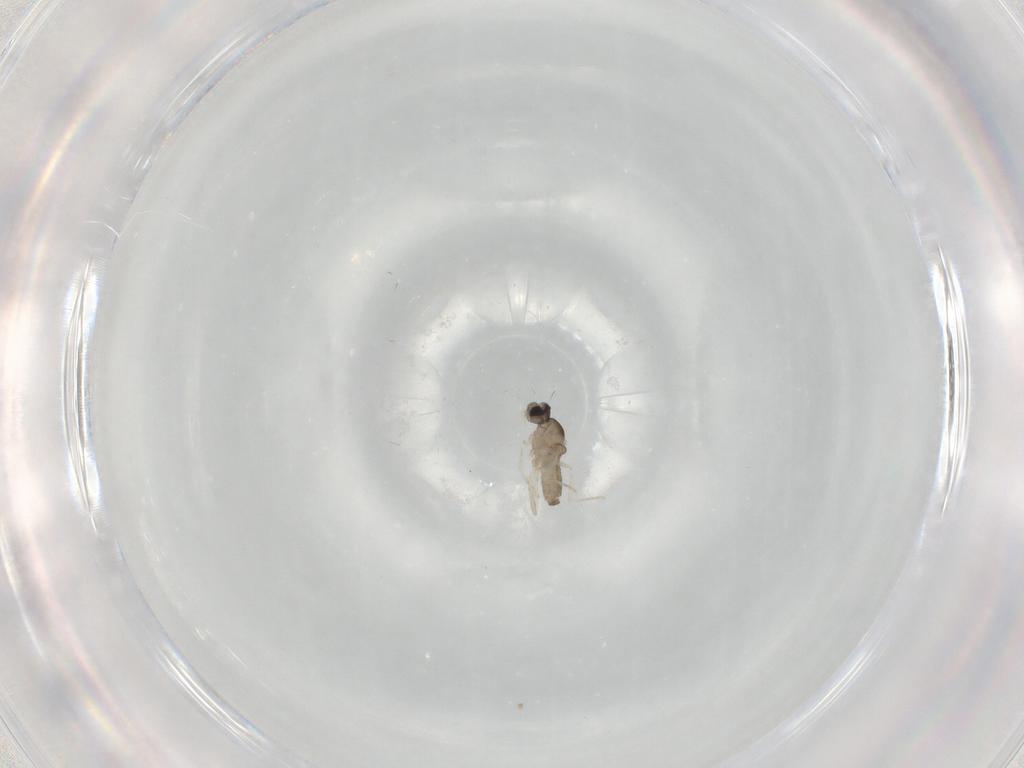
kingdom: Animalia
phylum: Arthropoda
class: Insecta
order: Diptera
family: Cecidomyiidae
